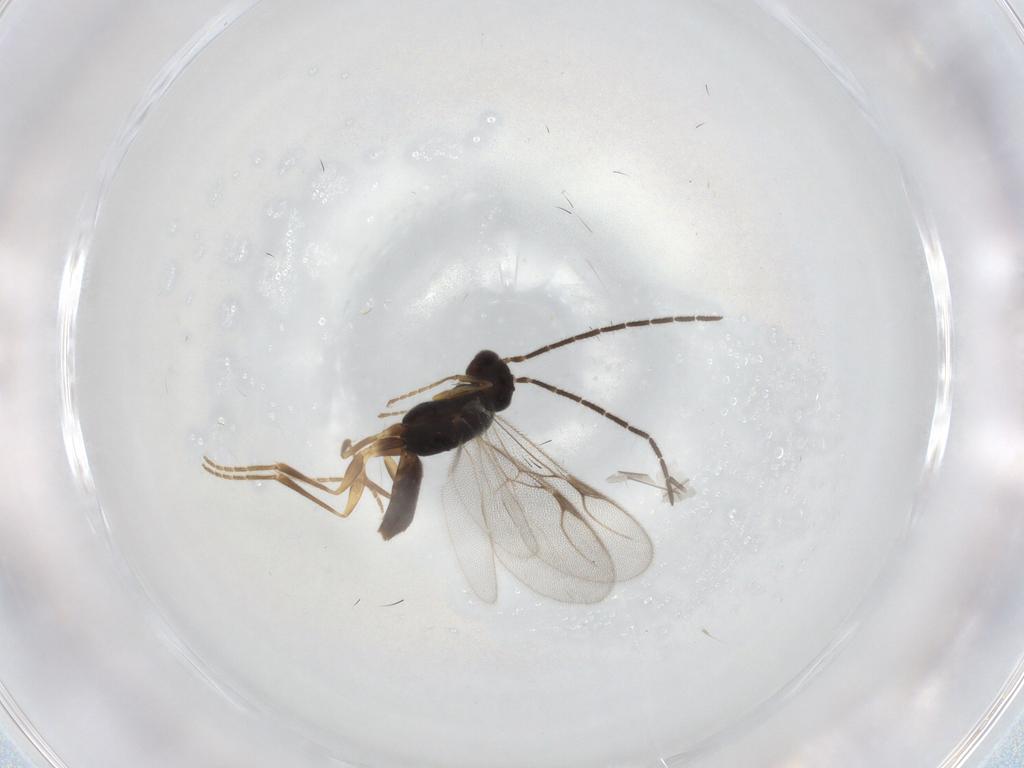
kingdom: Animalia
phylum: Arthropoda
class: Insecta
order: Hymenoptera
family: Dryinidae
